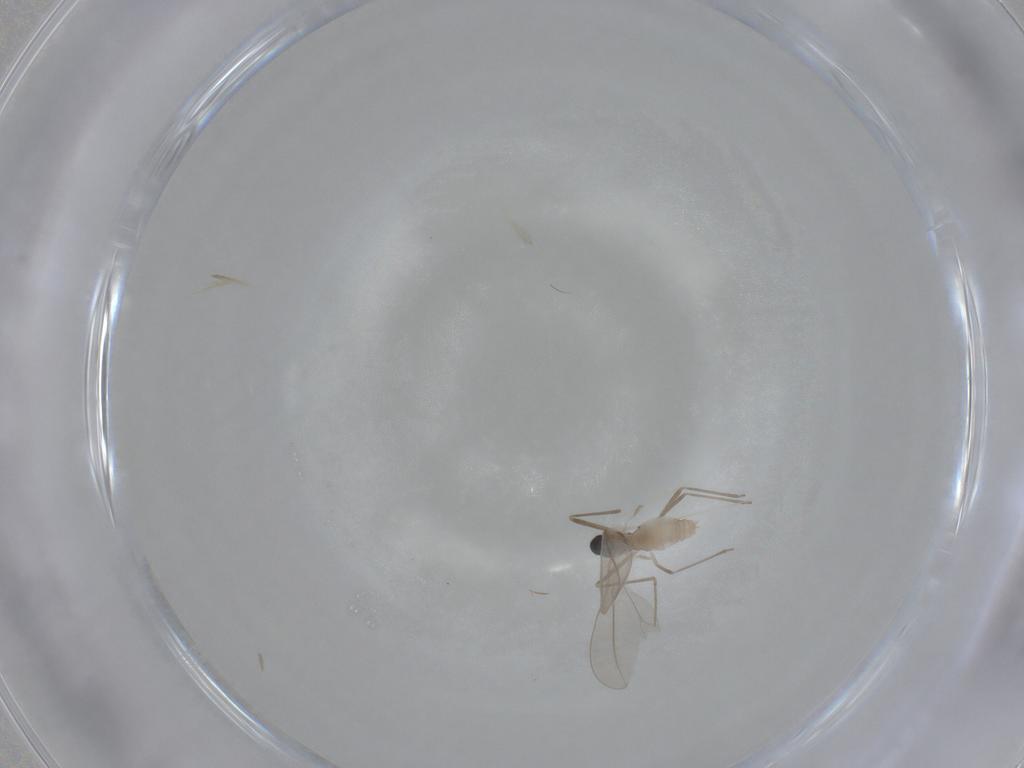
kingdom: Animalia
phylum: Arthropoda
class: Insecta
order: Diptera
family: Cecidomyiidae
